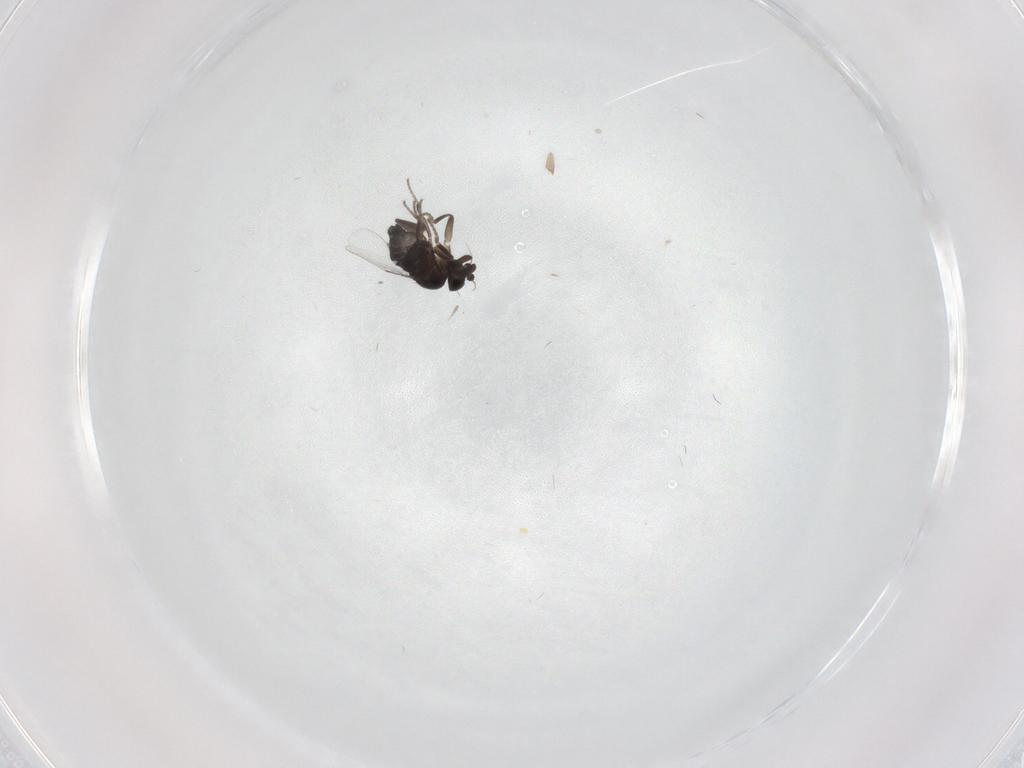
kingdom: Animalia
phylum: Arthropoda
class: Insecta
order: Diptera
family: Phoridae
